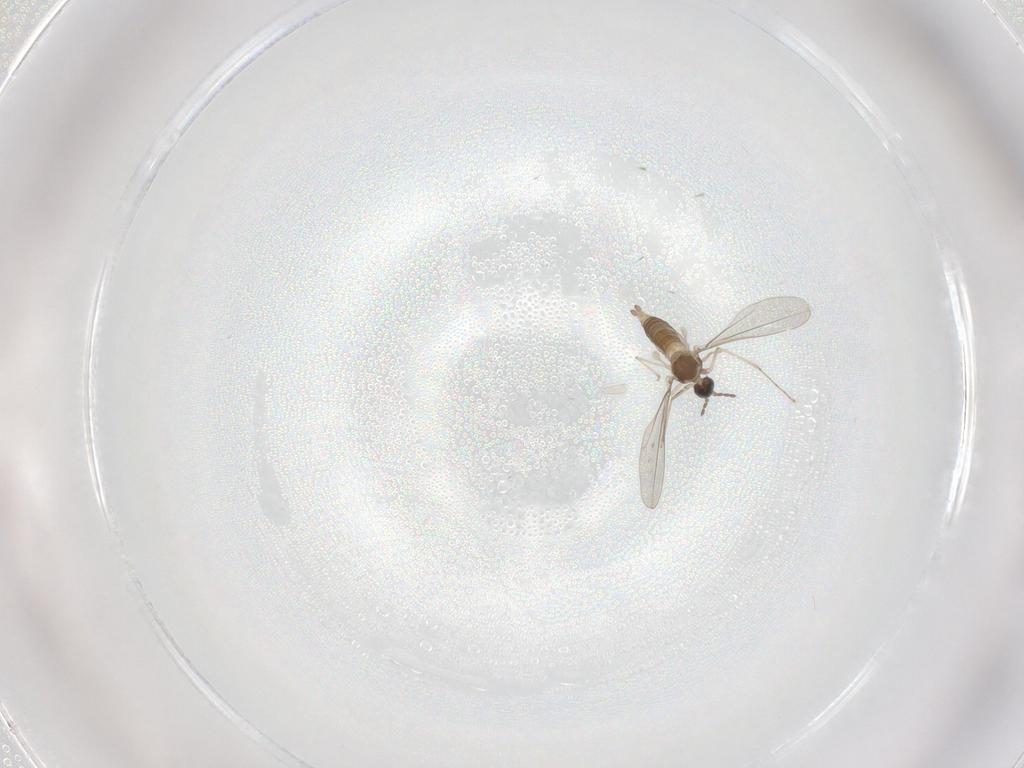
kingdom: Animalia
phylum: Arthropoda
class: Insecta
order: Diptera
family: Psychodidae
